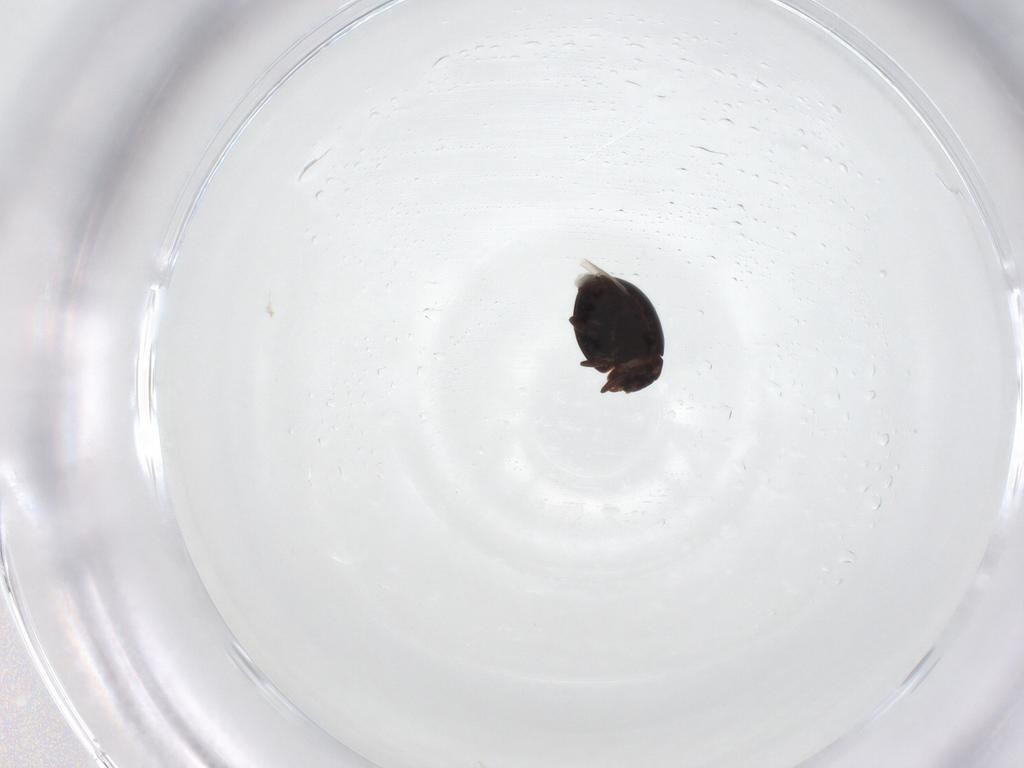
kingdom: Animalia
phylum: Arthropoda
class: Insecta
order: Coleoptera
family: Coccinellidae
